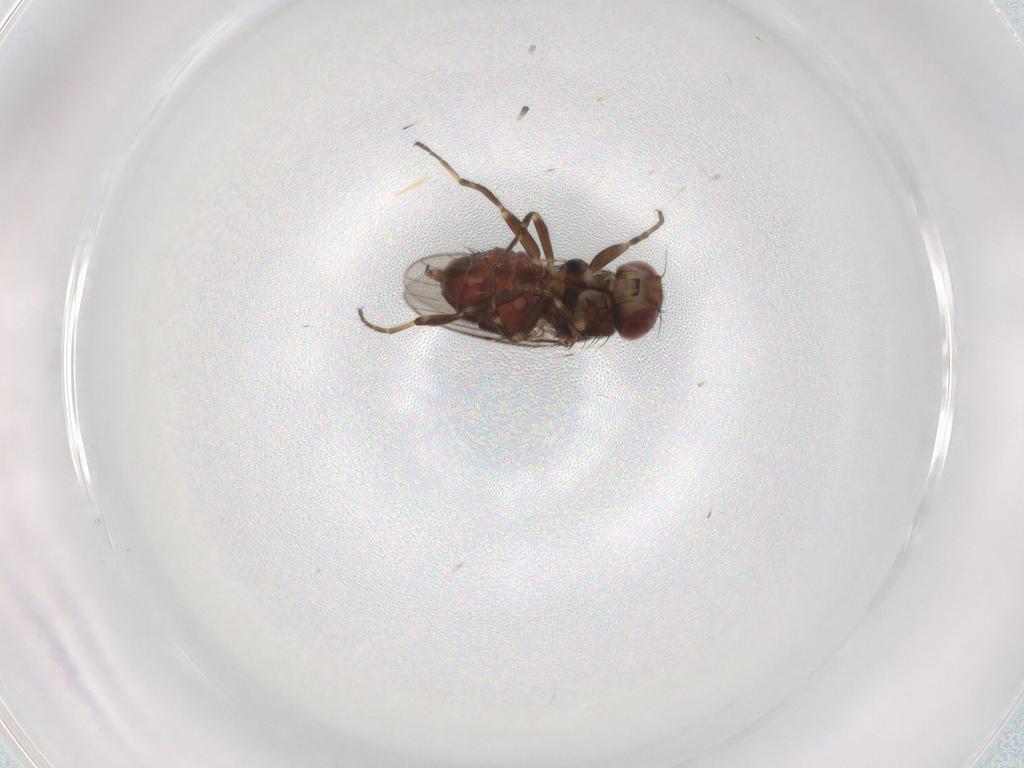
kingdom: Animalia
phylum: Arthropoda
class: Insecta
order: Diptera
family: Chloropidae
